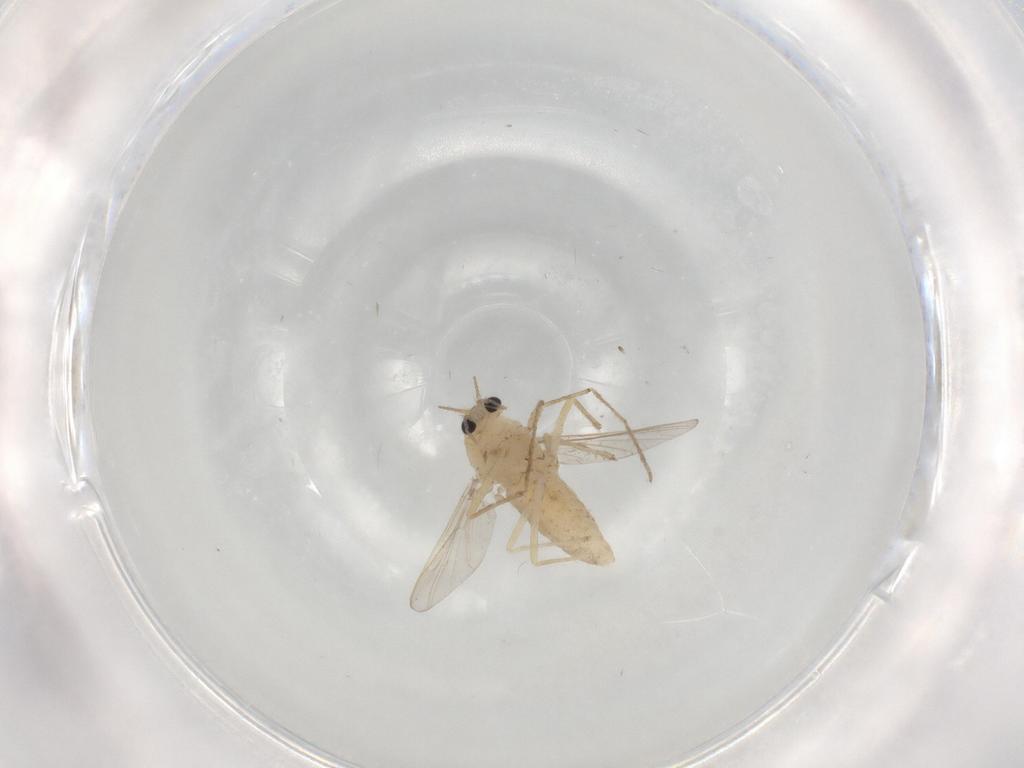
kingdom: Animalia
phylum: Arthropoda
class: Insecta
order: Diptera
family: Chironomidae
